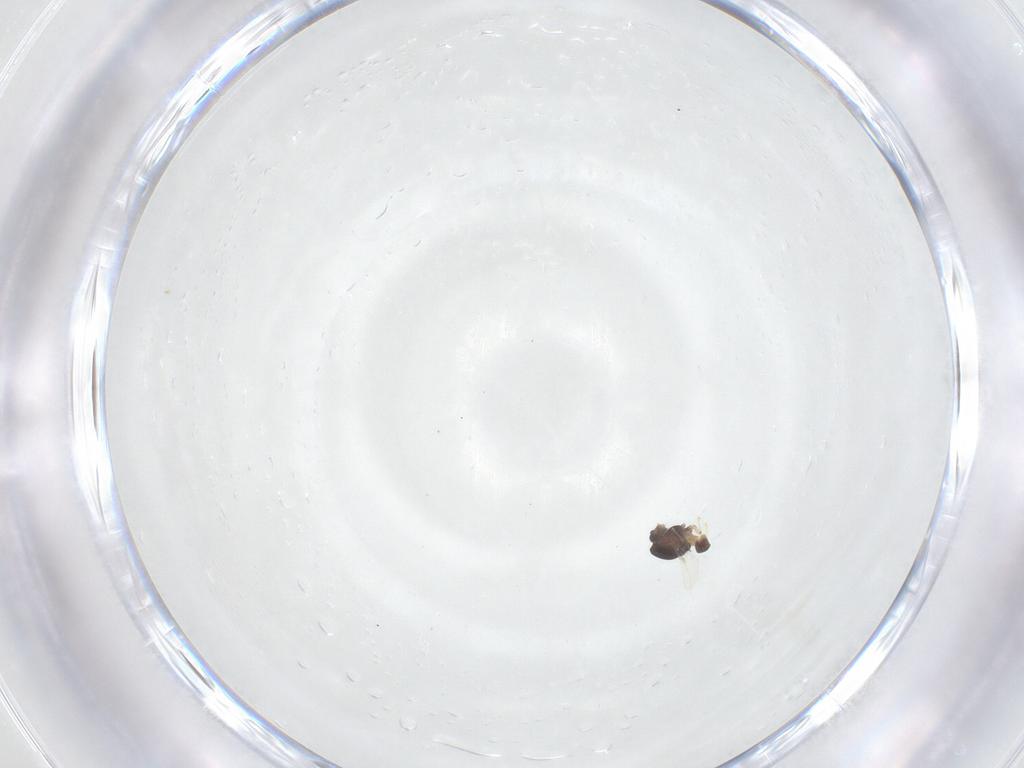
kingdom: Animalia
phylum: Arthropoda
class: Insecta
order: Diptera
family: Chironomidae
